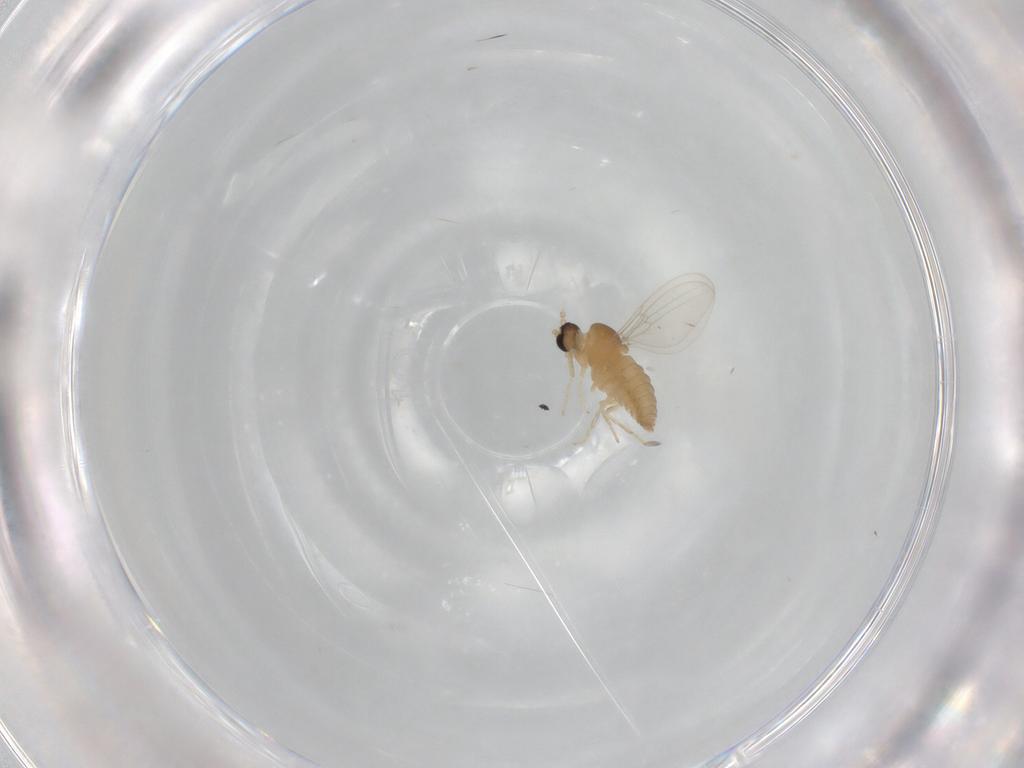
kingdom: Animalia
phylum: Arthropoda
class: Insecta
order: Diptera
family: Cecidomyiidae
